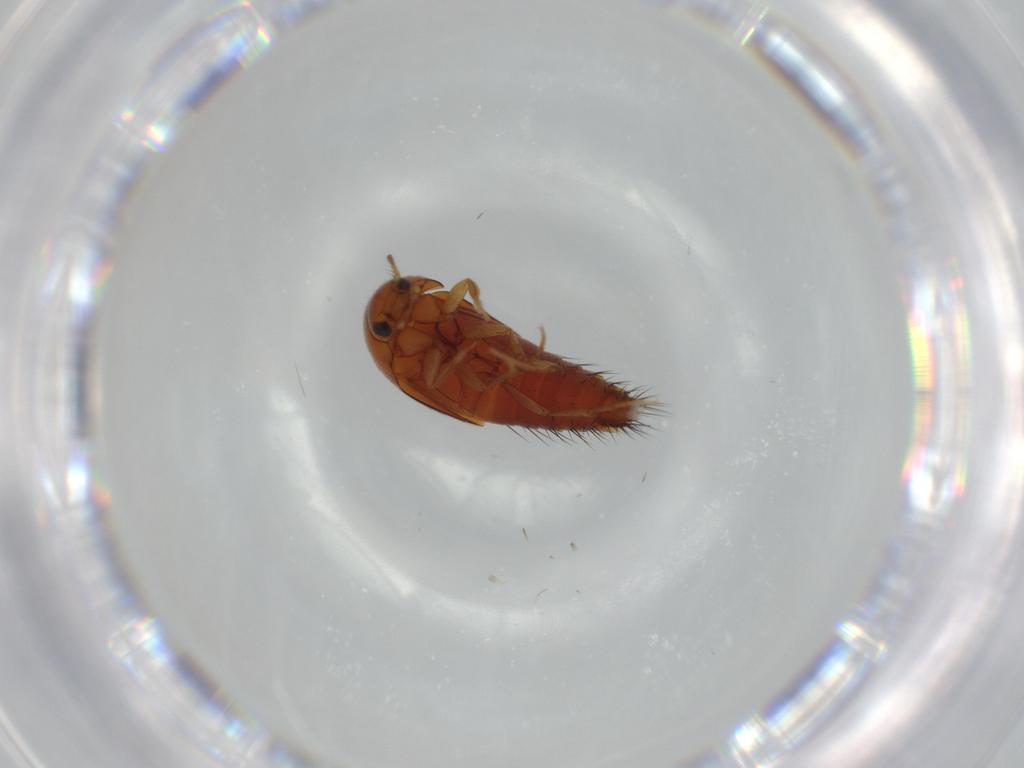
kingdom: Animalia
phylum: Arthropoda
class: Insecta
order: Coleoptera
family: Staphylinidae
